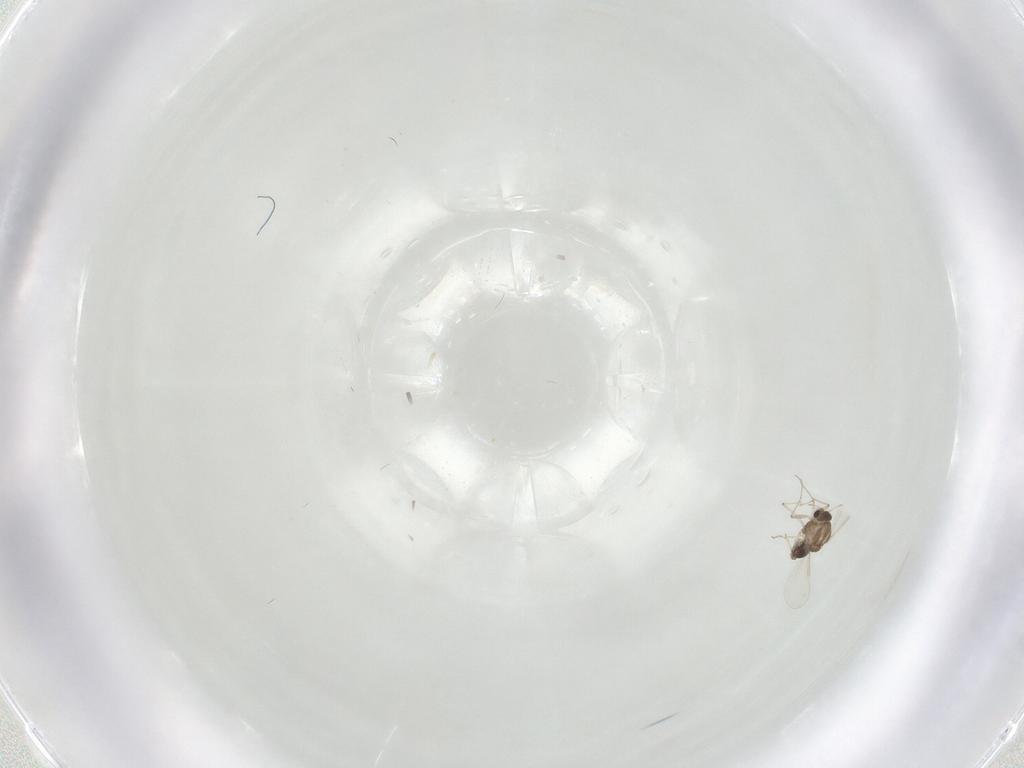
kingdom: Animalia
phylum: Arthropoda
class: Insecta
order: Diptera
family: Chironomidae
